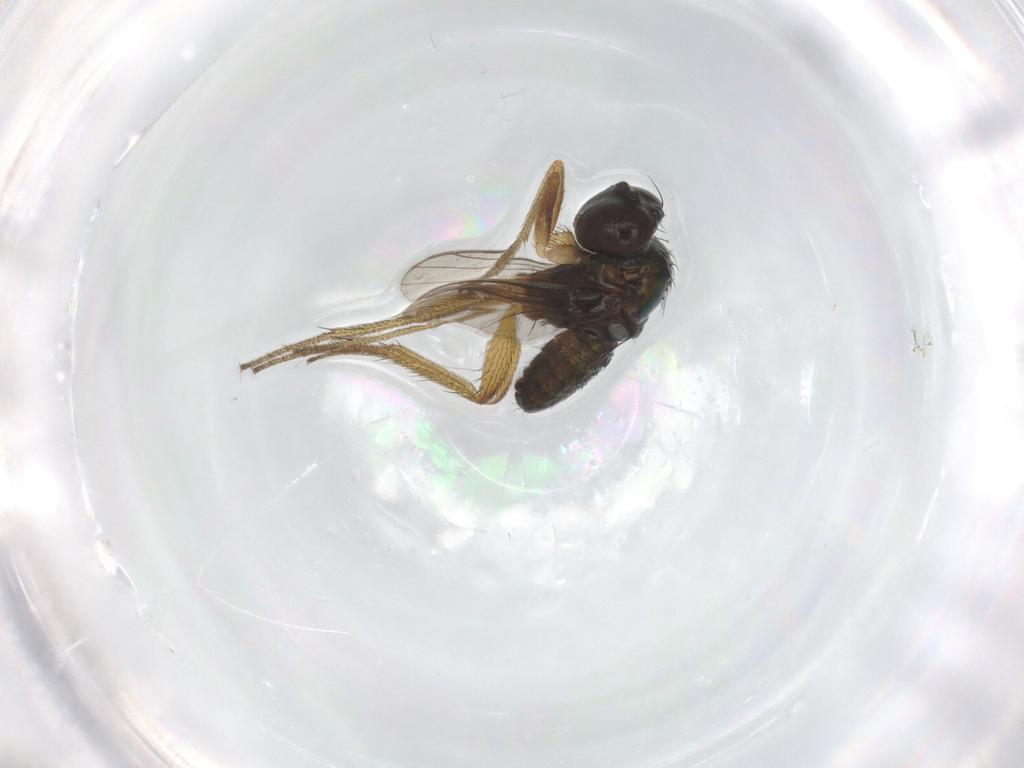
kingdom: Animalia
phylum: Arthropoda
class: Insecta
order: Diptera
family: Dolichopodidae
